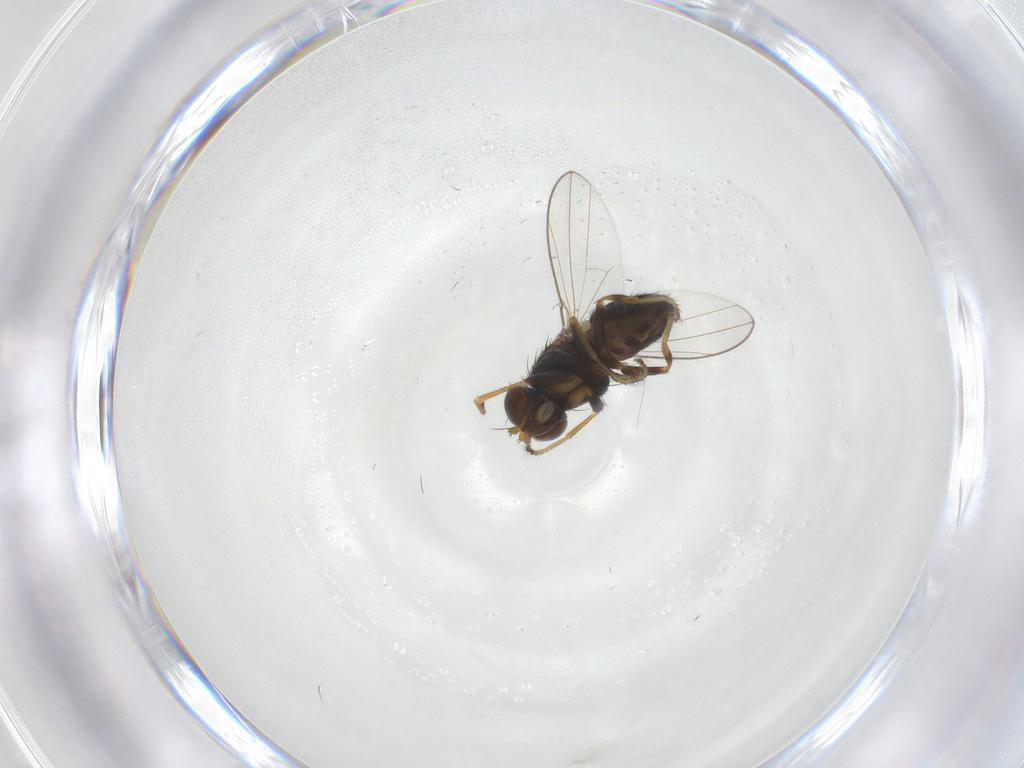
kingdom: Animalia
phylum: Arthropoda
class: Insecta
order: Diptera
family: Ephydridae
